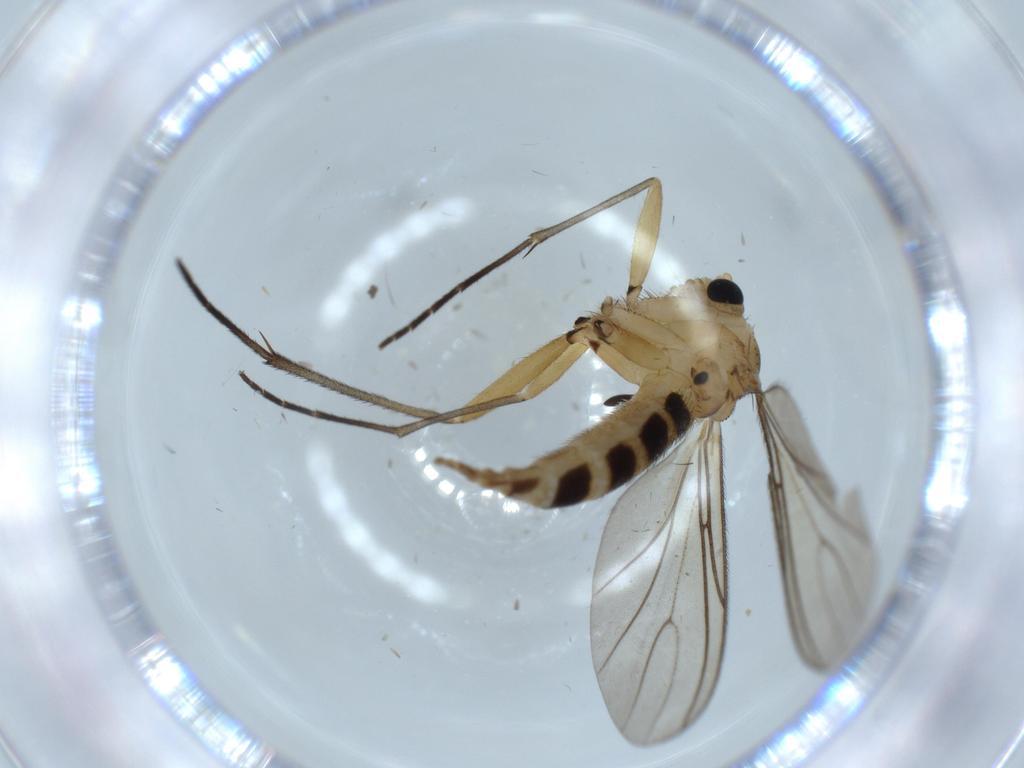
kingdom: Animalia
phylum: Arthropoda
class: Insecta
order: Diptera
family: Sciaridae
